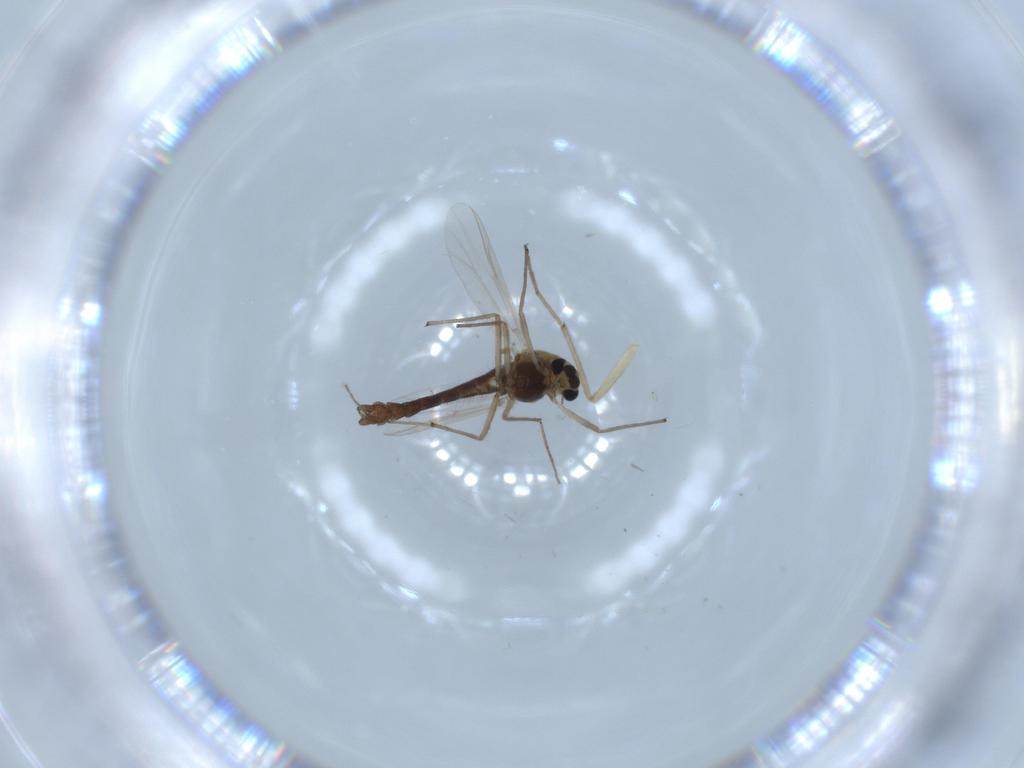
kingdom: Animalia
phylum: Arthropoda
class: Insecta
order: Diptera
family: Chironomidae
